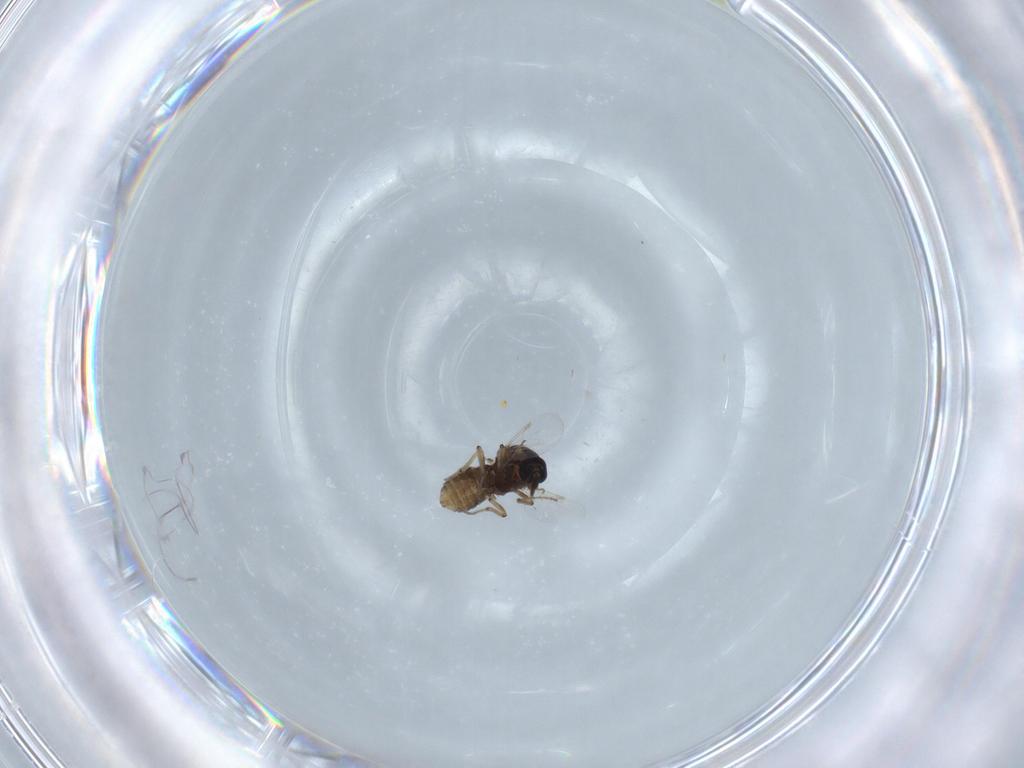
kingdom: Animalia
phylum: Arthropoda
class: Insecta
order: Diptera
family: Ceratopogonidae
